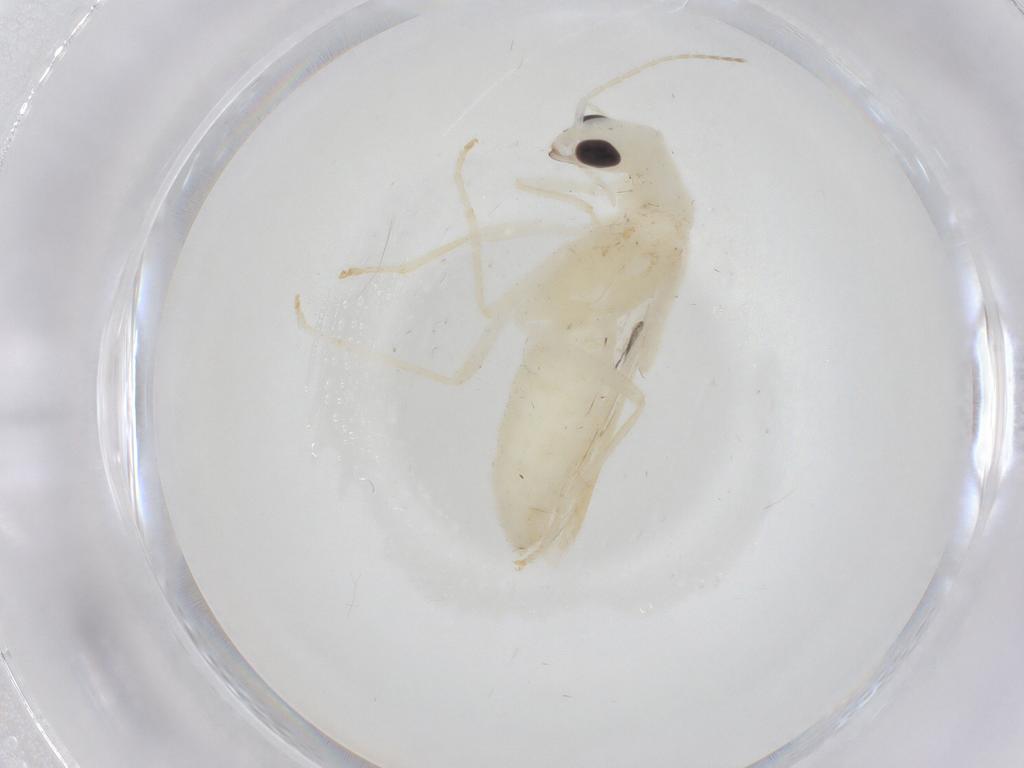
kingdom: Animalia
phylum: Arthropoda
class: Insecta
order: Coleoptera
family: Cantharidae
